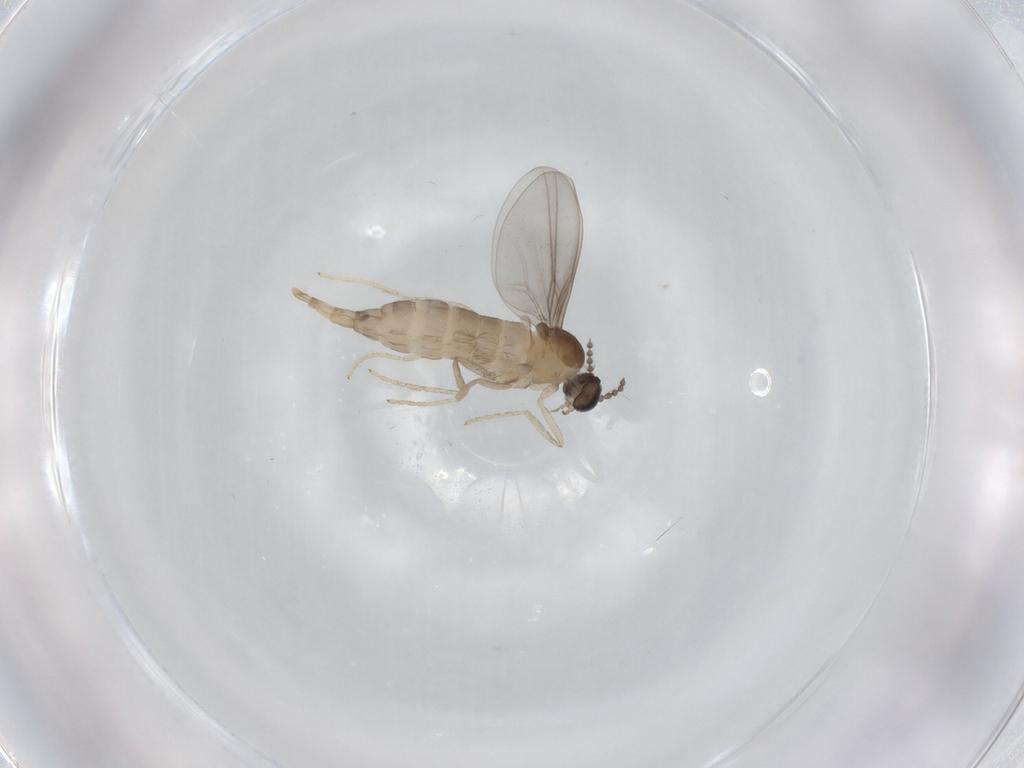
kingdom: Animalia
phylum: Arthropoda
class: Insecta
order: Diptera
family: Cecidomyiidae
